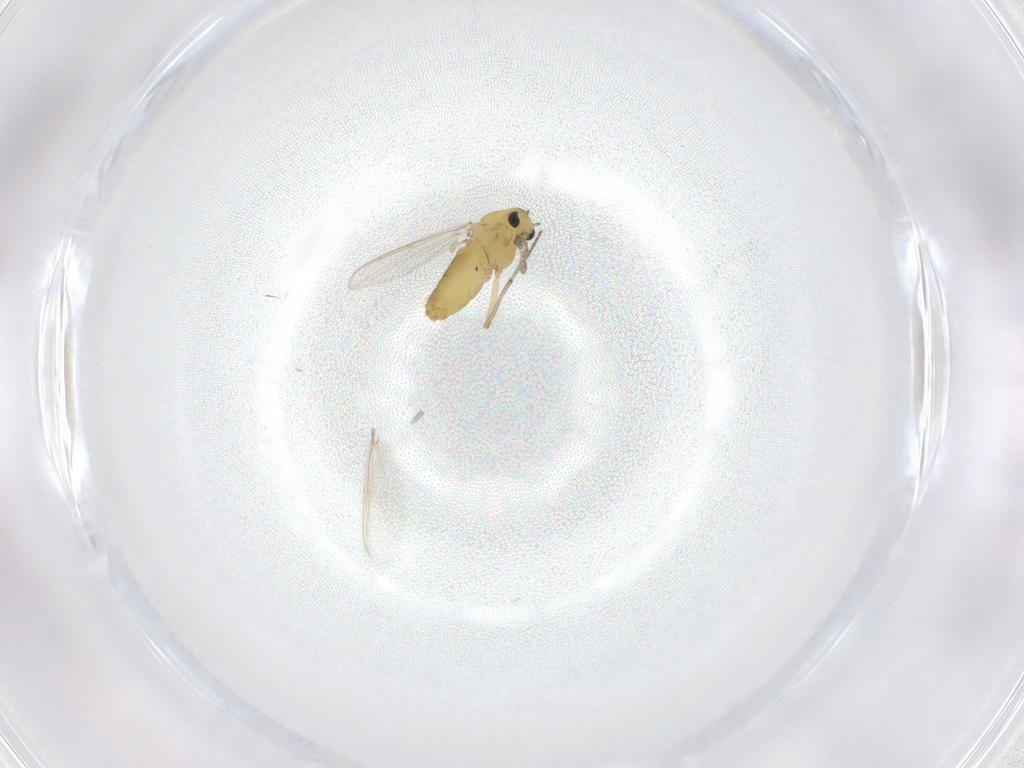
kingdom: Animalia
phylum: Arthropoda
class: Insecta
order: Diptera
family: Chironomidae
